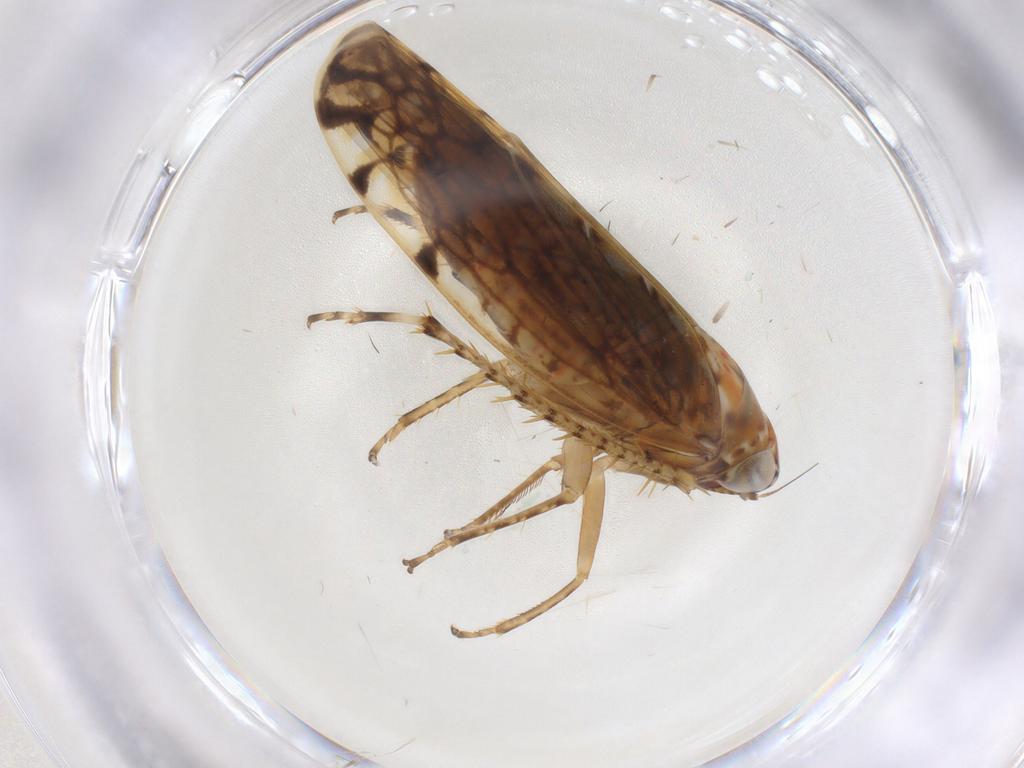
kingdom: Animalia
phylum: Arthropoda
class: Insecta
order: Hemiptera
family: Cicadellidae
